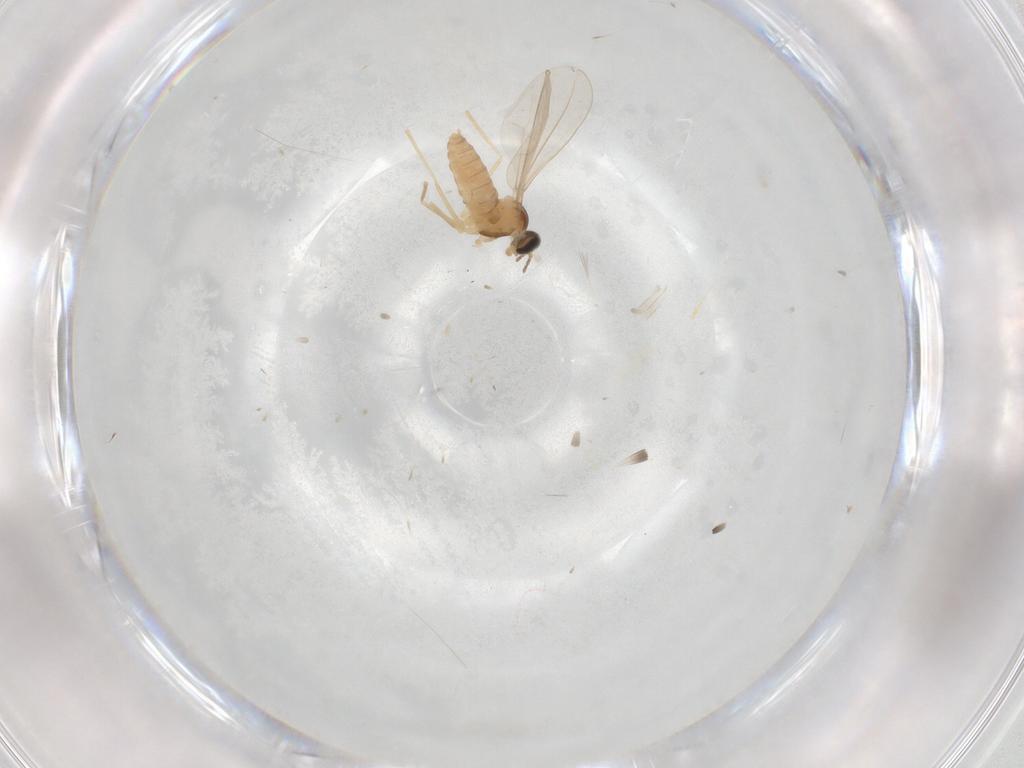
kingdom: Animalia
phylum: Arthropoda
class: Insecta
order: Diptera
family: Cecidomyiidae
